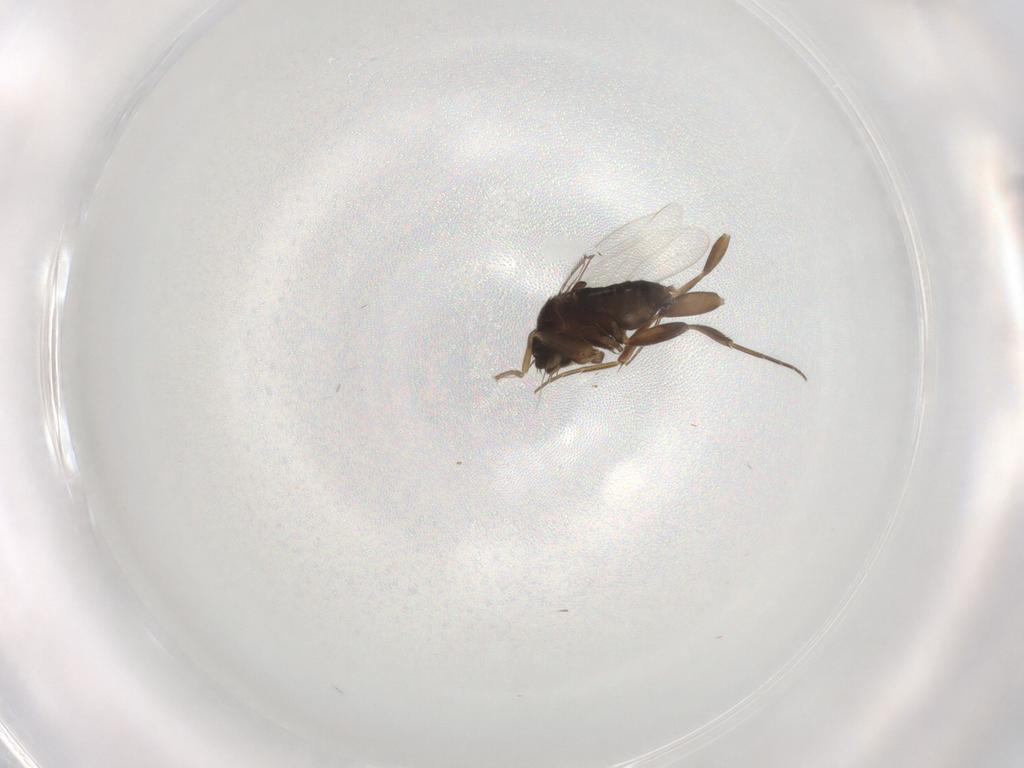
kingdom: Animalia
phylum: Arthropoda
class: Insecta
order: Diptera
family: Phoridae
